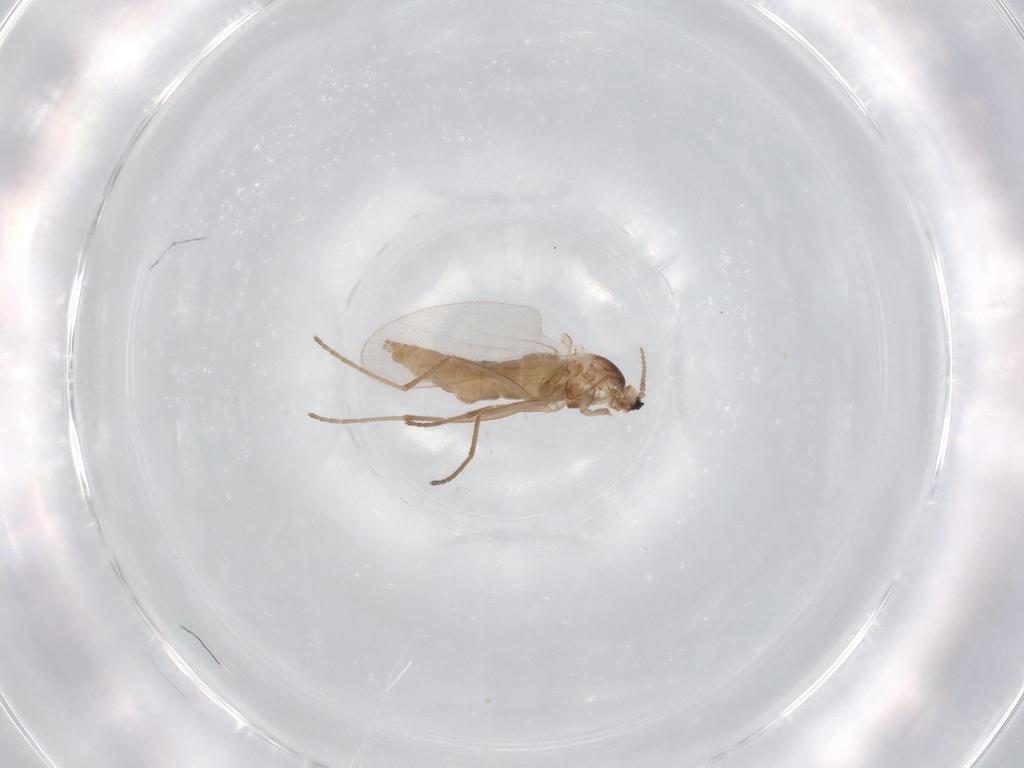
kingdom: Animalia
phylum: Arthropoda
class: Insecta
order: Diptera
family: Cecidomyiidae
